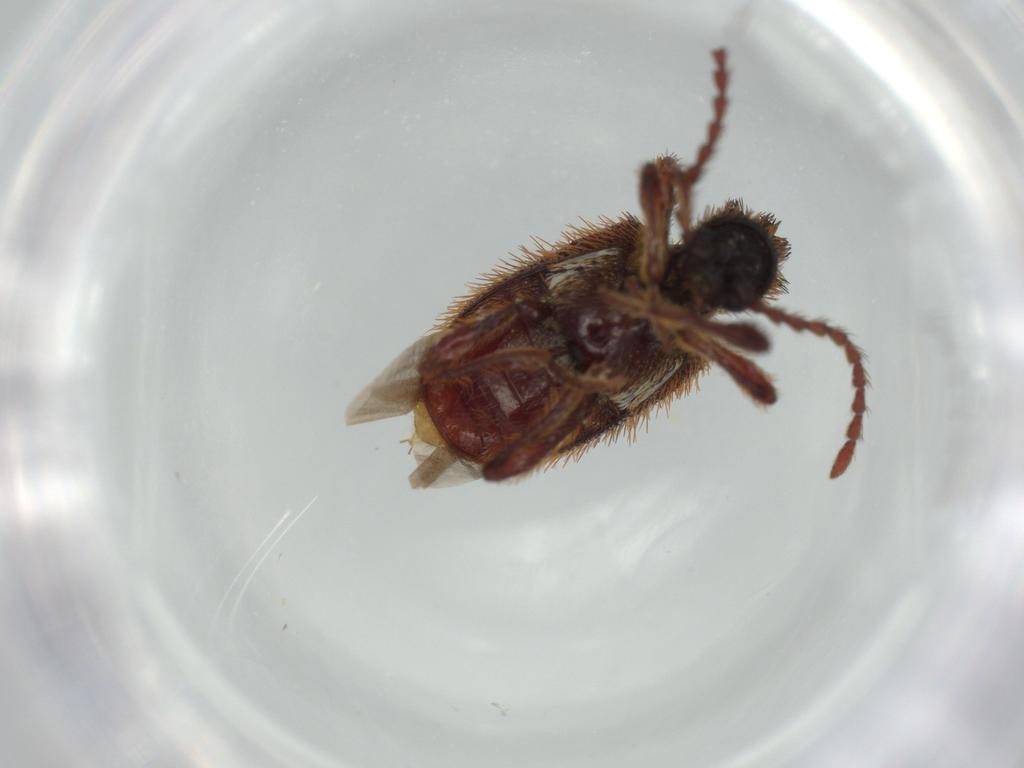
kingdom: Animalia
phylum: Arthropoda
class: Insecta
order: Coleoptera
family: Ptinidae
